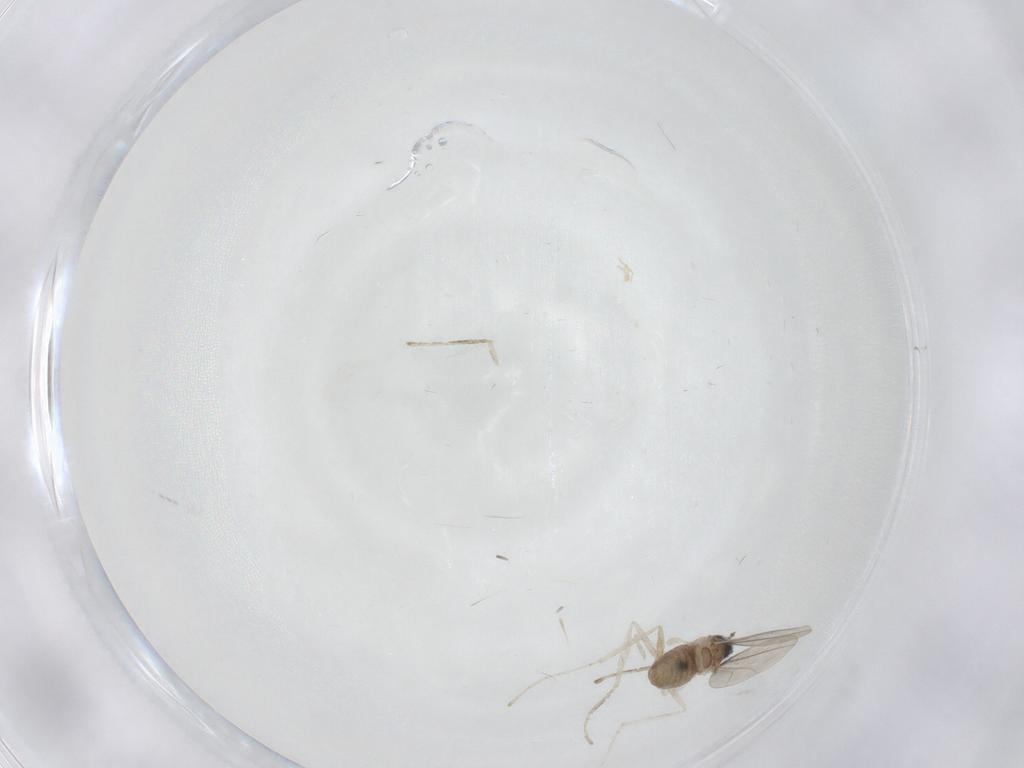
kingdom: Animalia
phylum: Arthropoda
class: Insecta
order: Diptera
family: Cecidomyiidae
